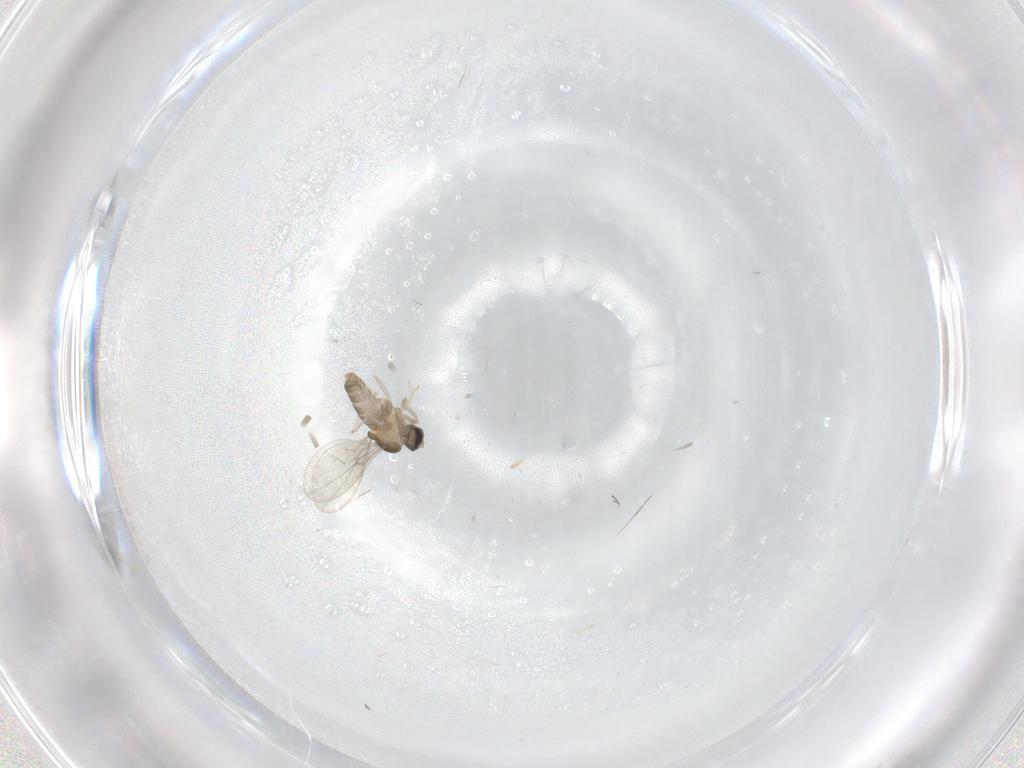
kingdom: Animalia
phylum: Arthropoda
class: Insecta
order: Diptera
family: Cecidomyiidae
